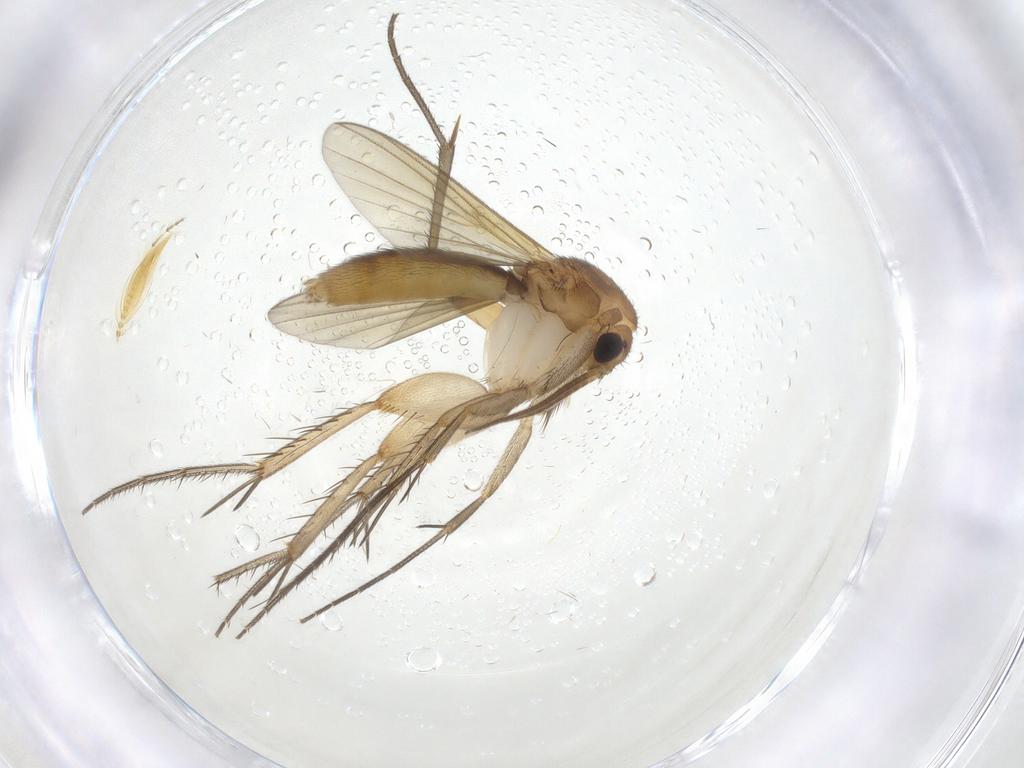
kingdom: Animalia
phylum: Arthropoda
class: Insecta
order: Diptera
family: Mycetophilidae
